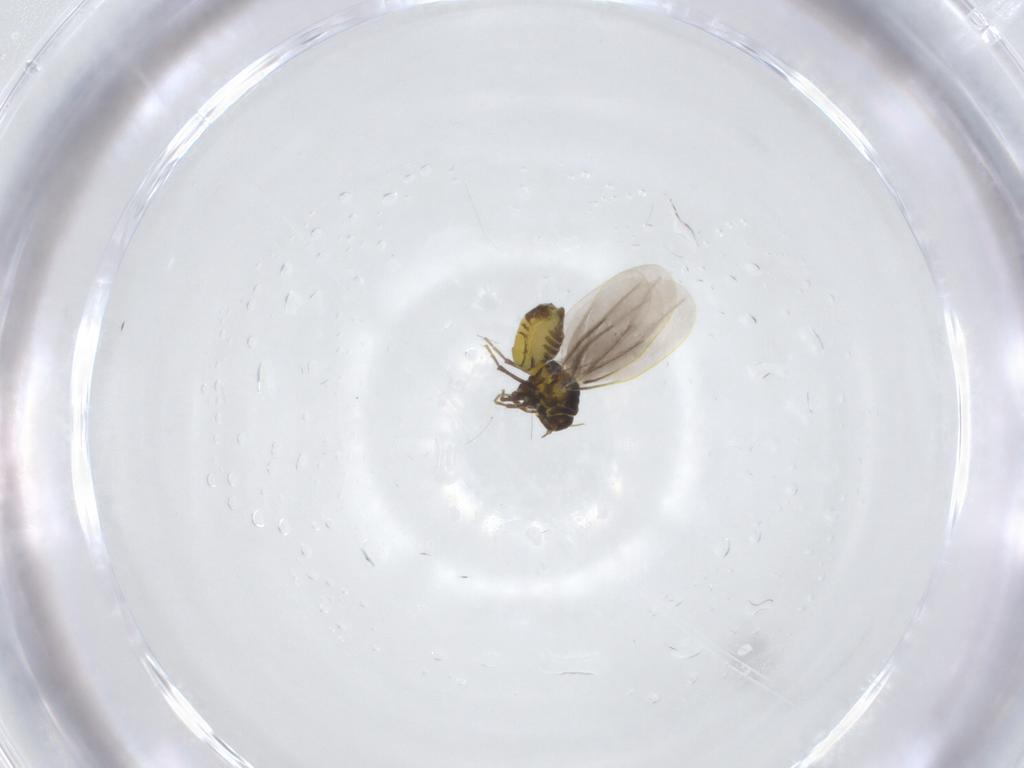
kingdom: Animalia
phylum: Arthropoda
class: Insecta
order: Hemiptera
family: Aleyrodidae
